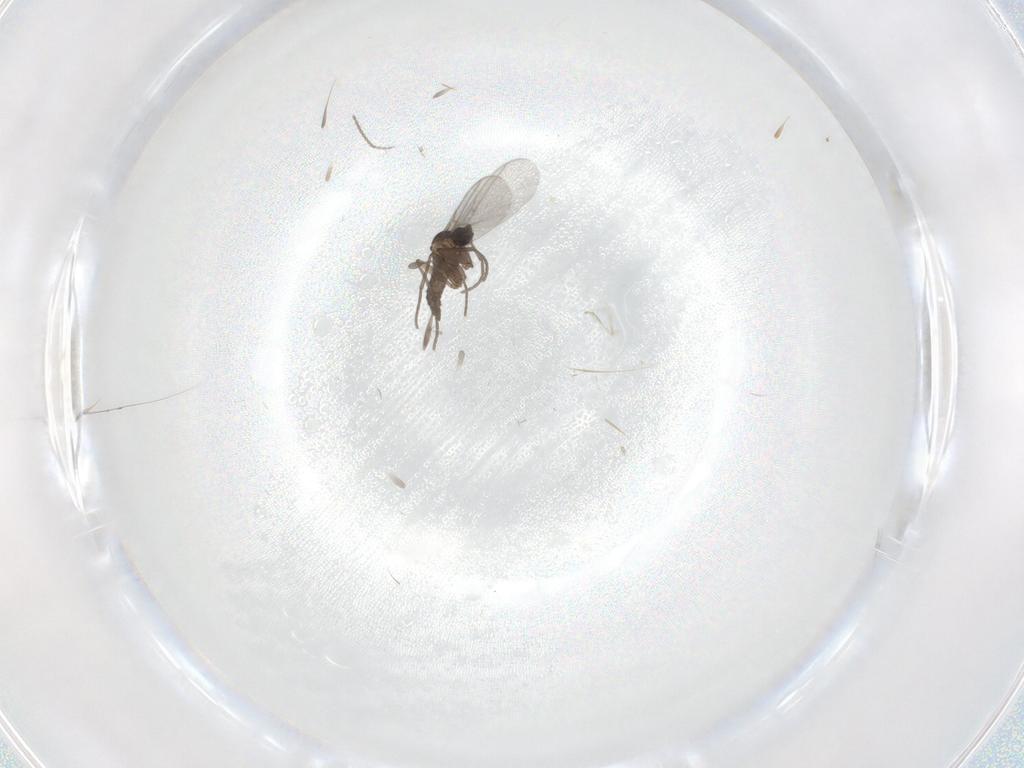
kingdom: Animalia
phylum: Arthropoda
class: Insecta
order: Diptera
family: Sciaridae
